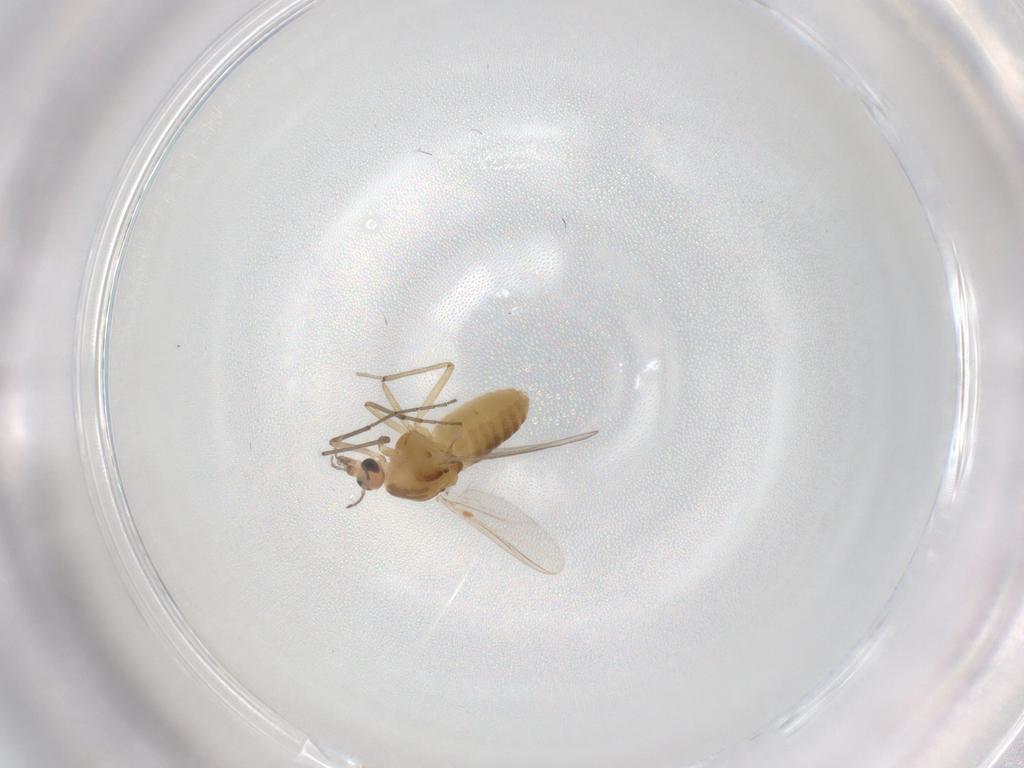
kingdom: Animalia
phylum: Arthropoda
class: Insecta
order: Diptera
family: Chironomidae
